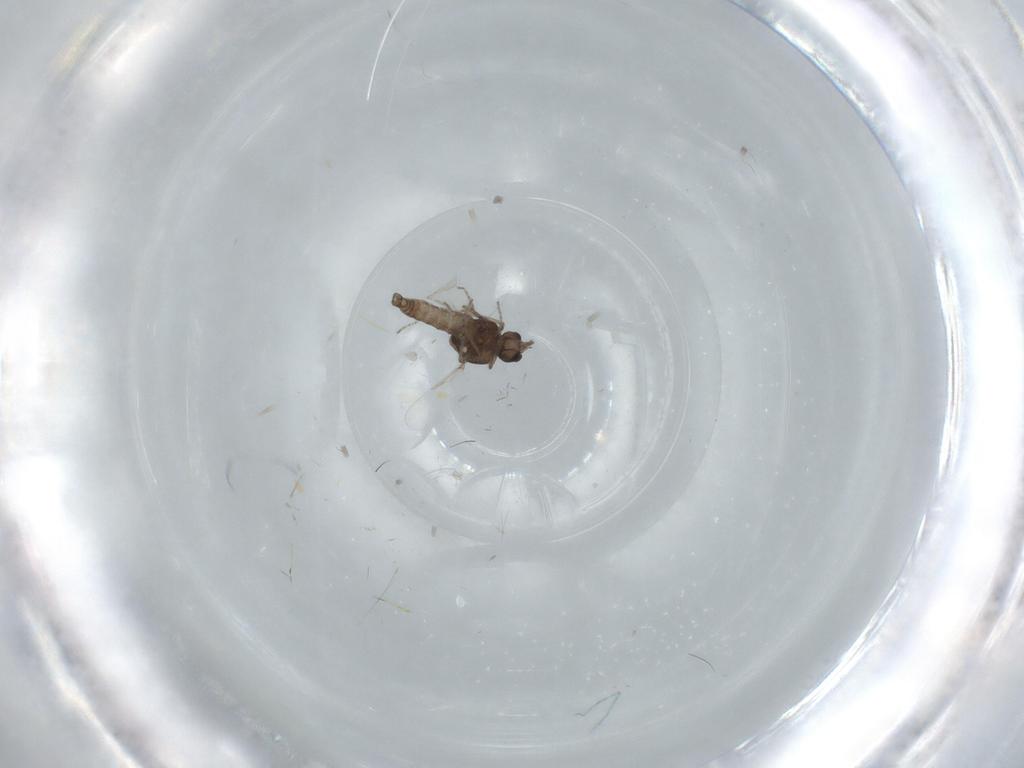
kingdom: Animalia
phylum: Arthropoda
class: Insecta
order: Diptera
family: Ceratopogonidae
